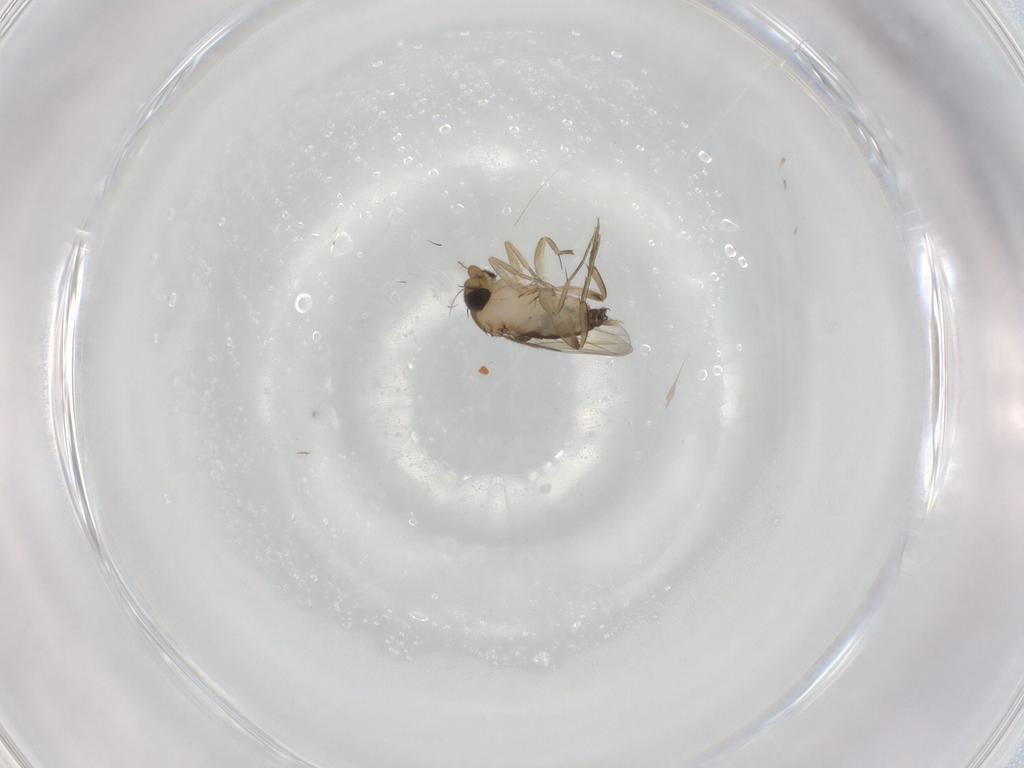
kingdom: Animalia
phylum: Arthropoda
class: Insecta
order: Diptera
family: Phoridae
